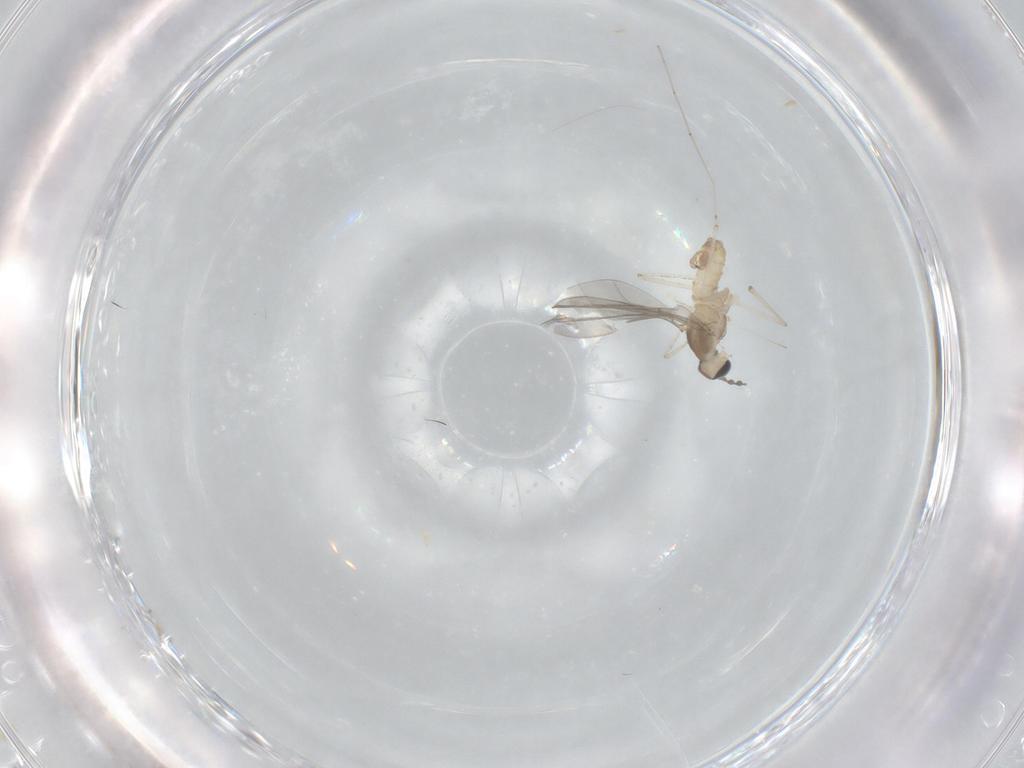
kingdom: Animalia
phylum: Arthropoda
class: Insecta
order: Diptera
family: Cecidomyiidae
